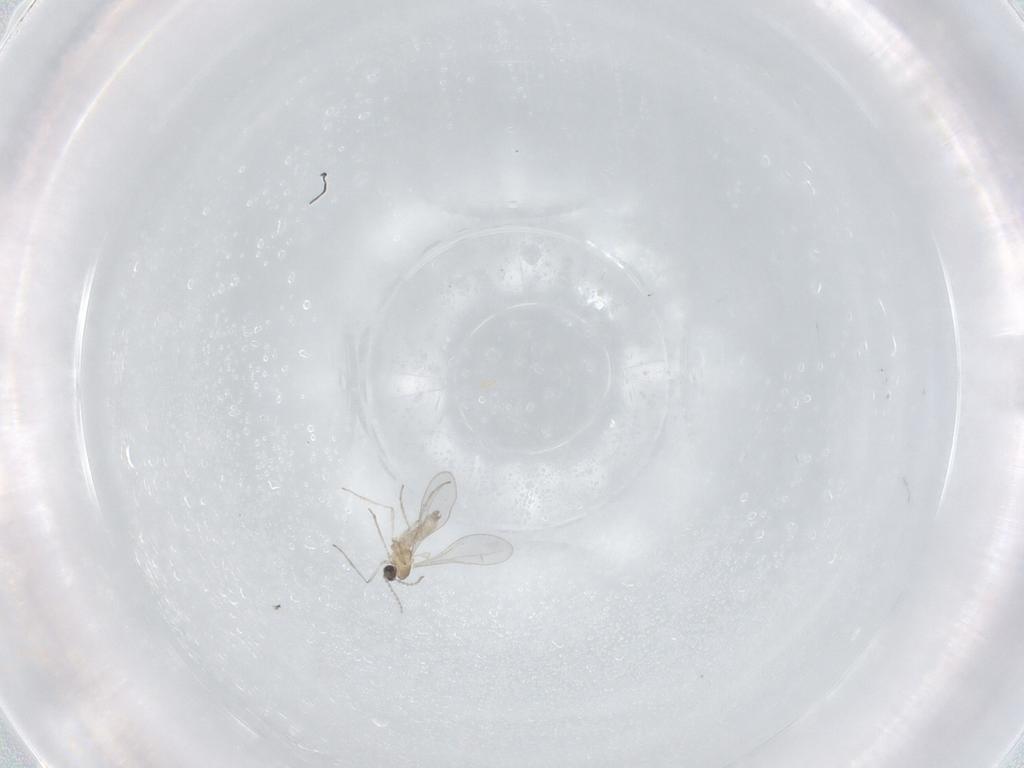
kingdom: Animalia
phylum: Arthropoda
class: Insecta
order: Diptera
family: Cecidomyiidae
